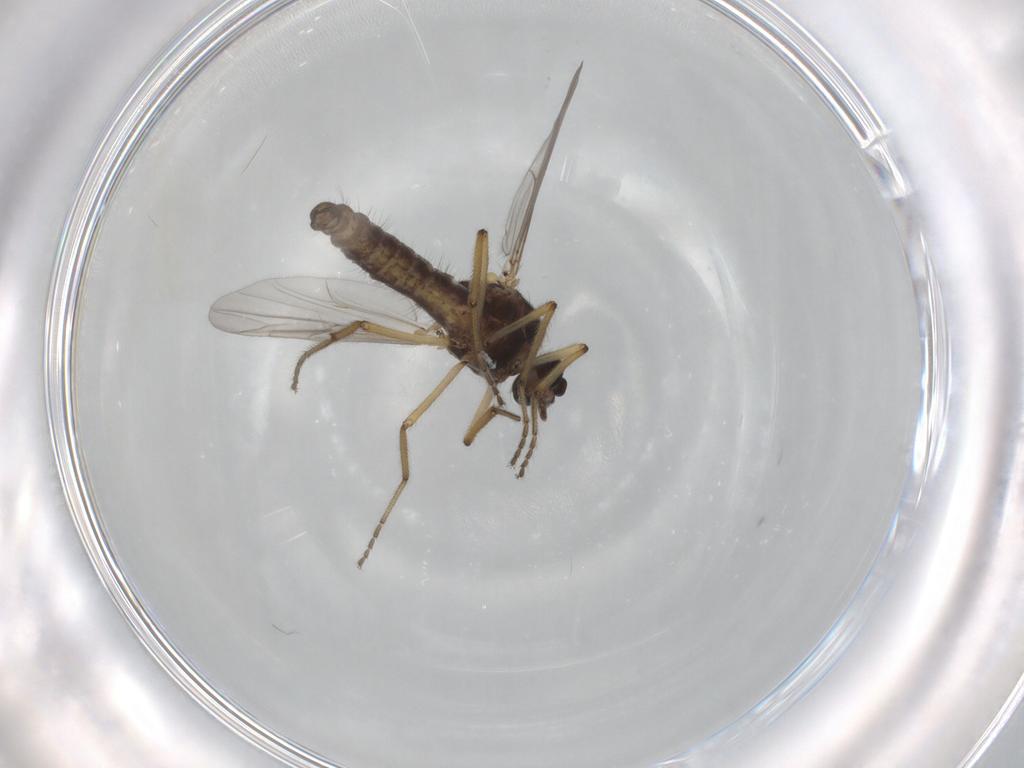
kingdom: Animalia
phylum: Arthropoda
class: Insecta
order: Diptera
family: Ceratopogonidae
